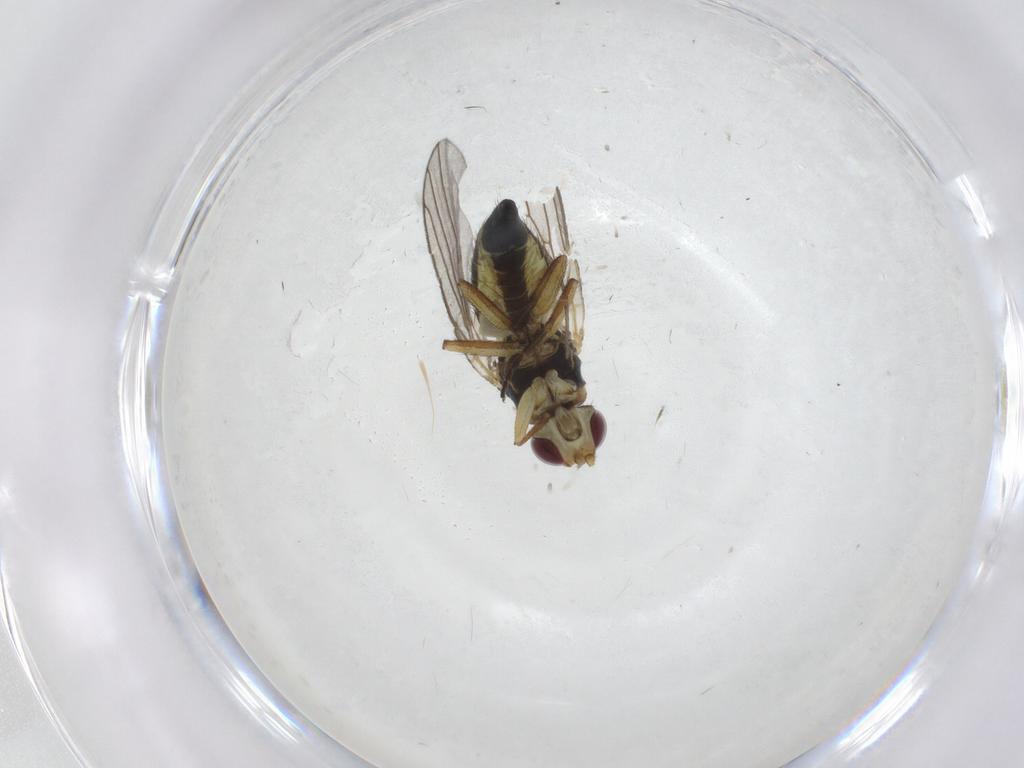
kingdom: Animalia
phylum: Arthropoda
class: Insecta
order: Diptera
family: Agromyzidae
